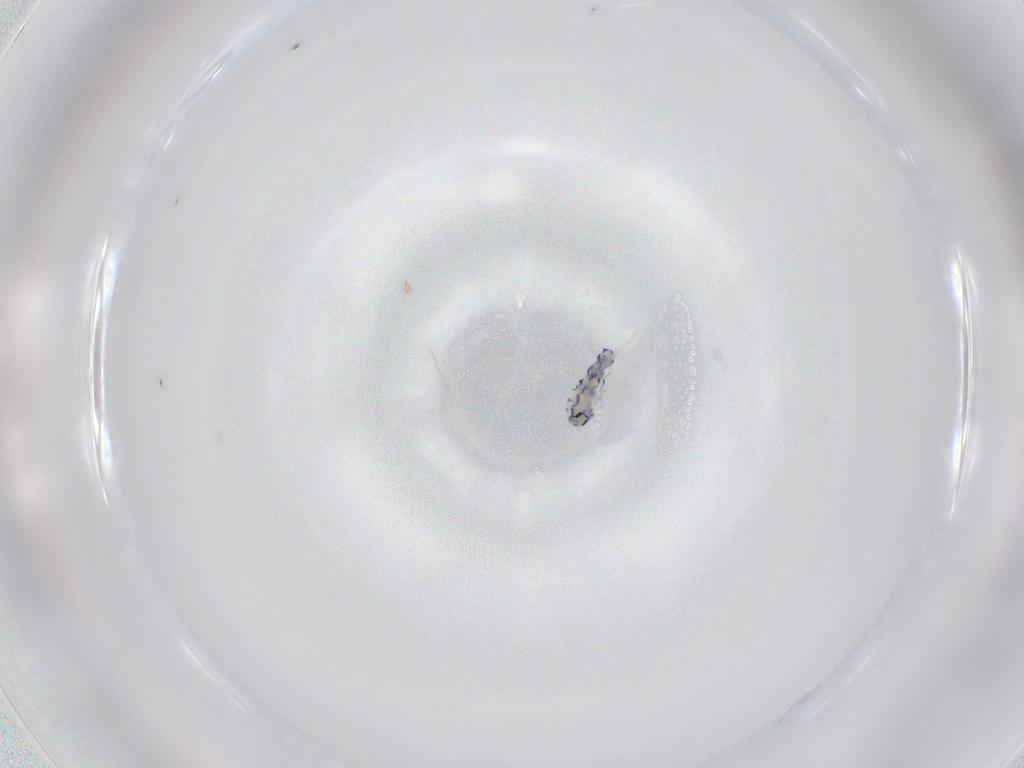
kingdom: Animalia
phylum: Arthropoda
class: Collembola
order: Entomobryomorpha
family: Entomobryidae
